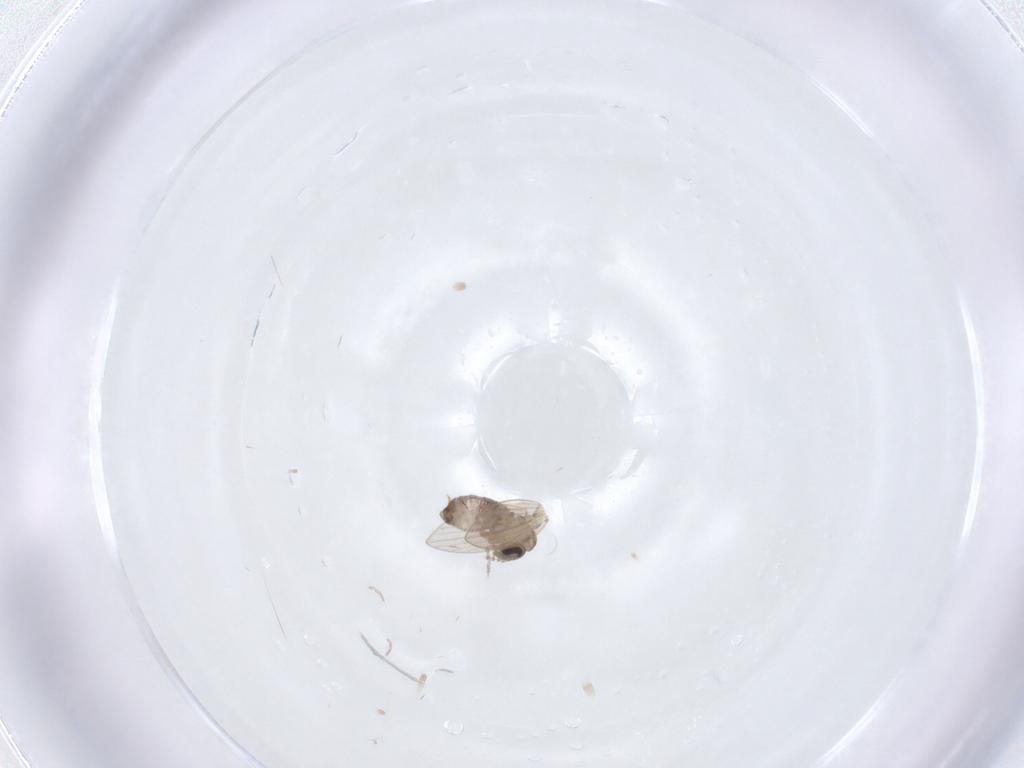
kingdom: Animalia
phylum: Arthropoda
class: Insecta
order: Diptera
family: Psychodidae
